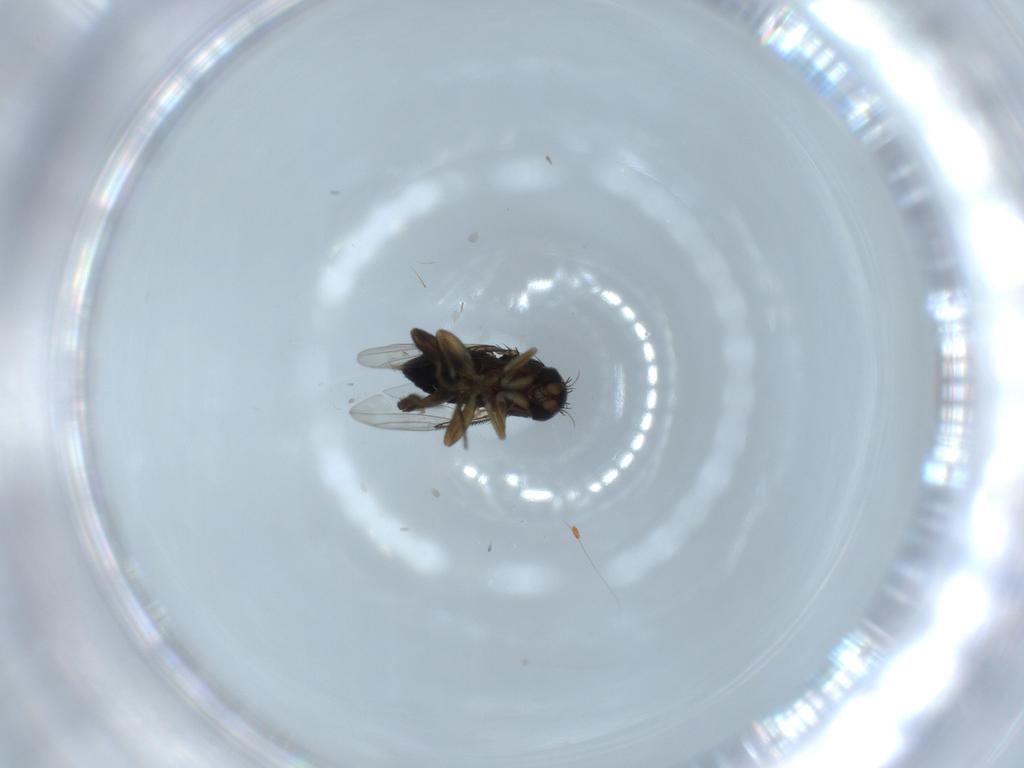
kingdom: Animalia
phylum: Arthropoda
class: Insecta
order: Diptera
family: Phoridae
